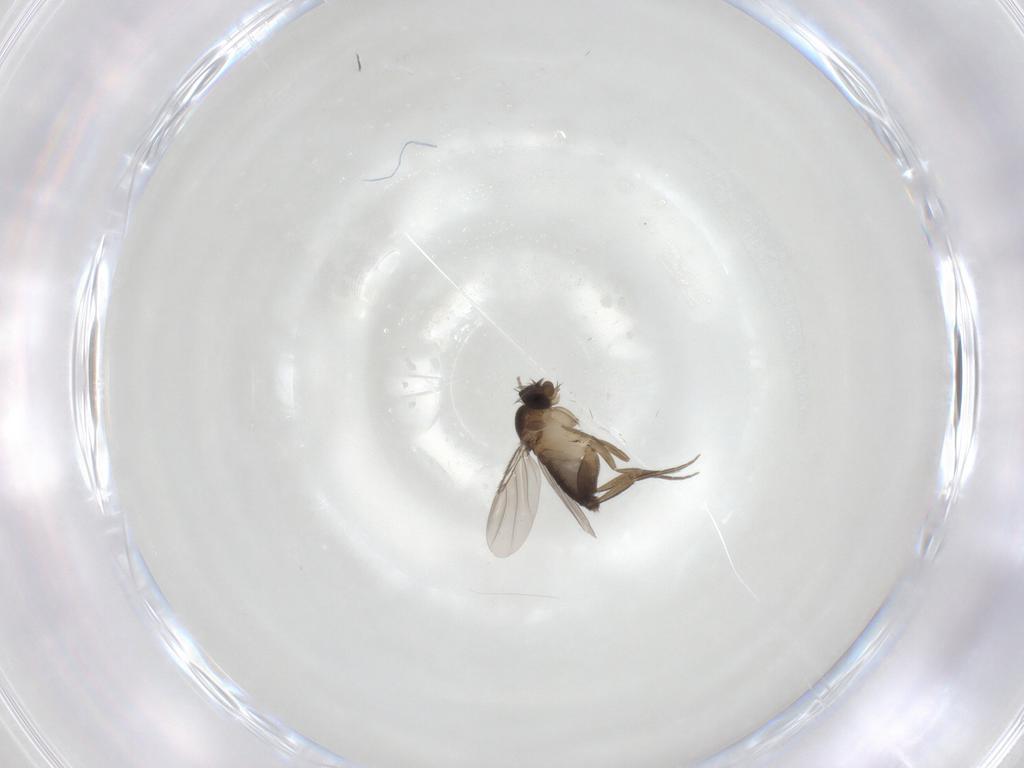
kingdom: Animalia
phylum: Arthropoda
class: Insecta
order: Diptera
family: Phoridae
